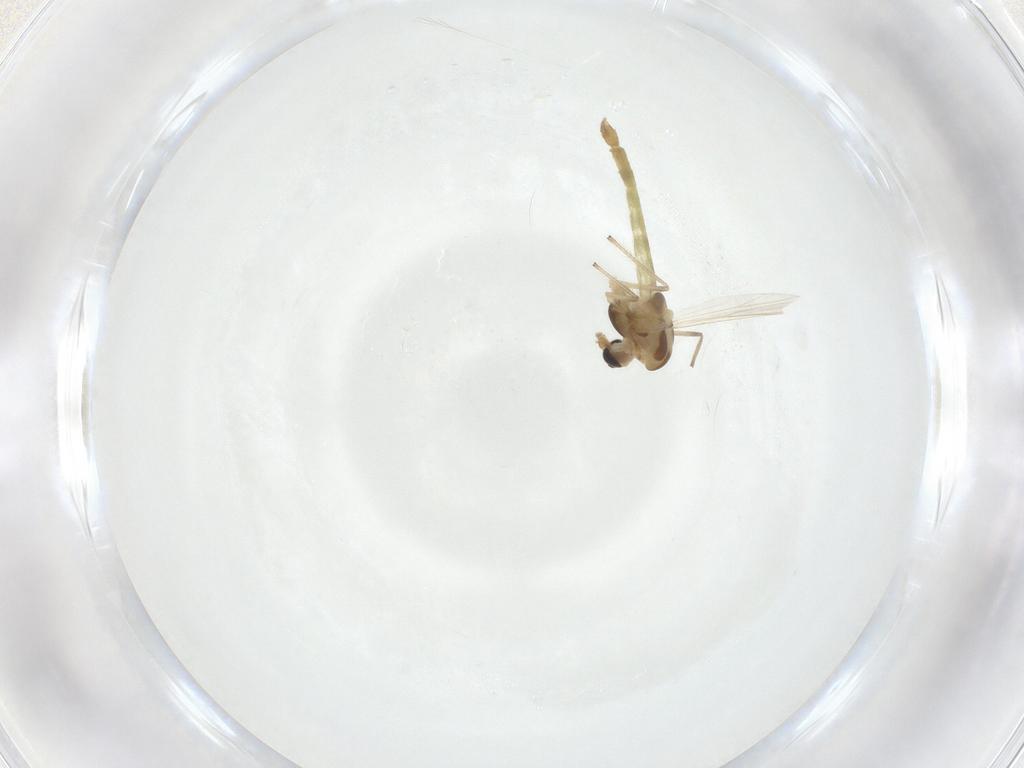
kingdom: Animalia
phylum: Arthropoda
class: Insecta
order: Diptera
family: Chironomidae
